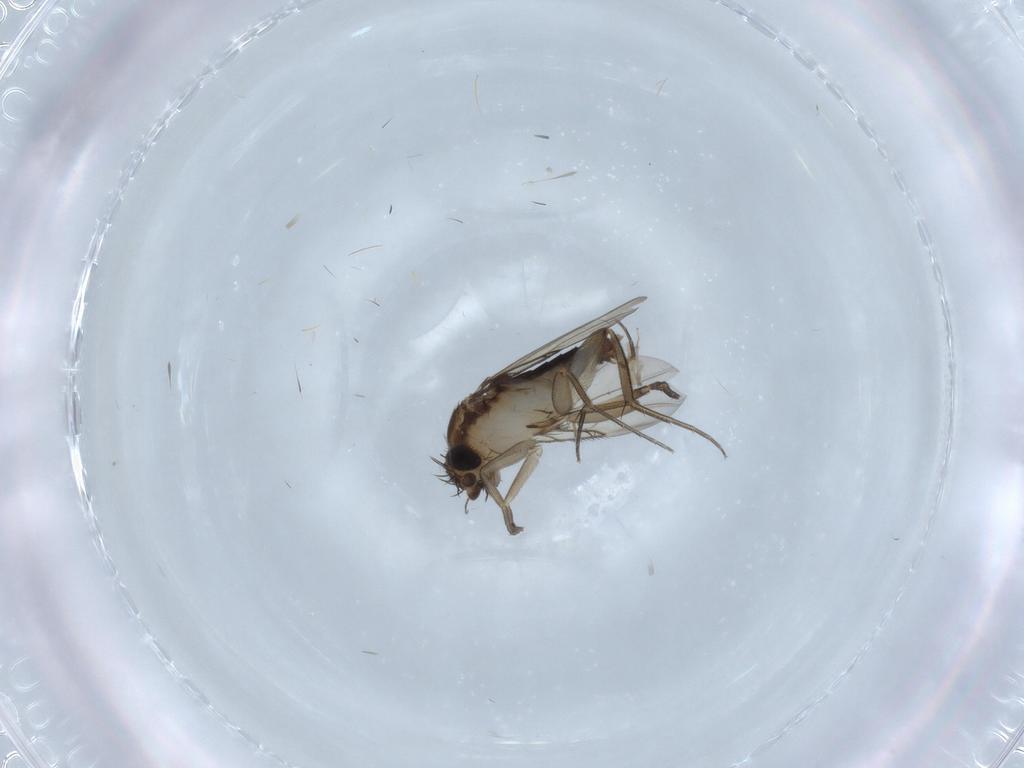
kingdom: Animalia
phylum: Arthropoda
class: Insecta
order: Diptera
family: Phoridae
